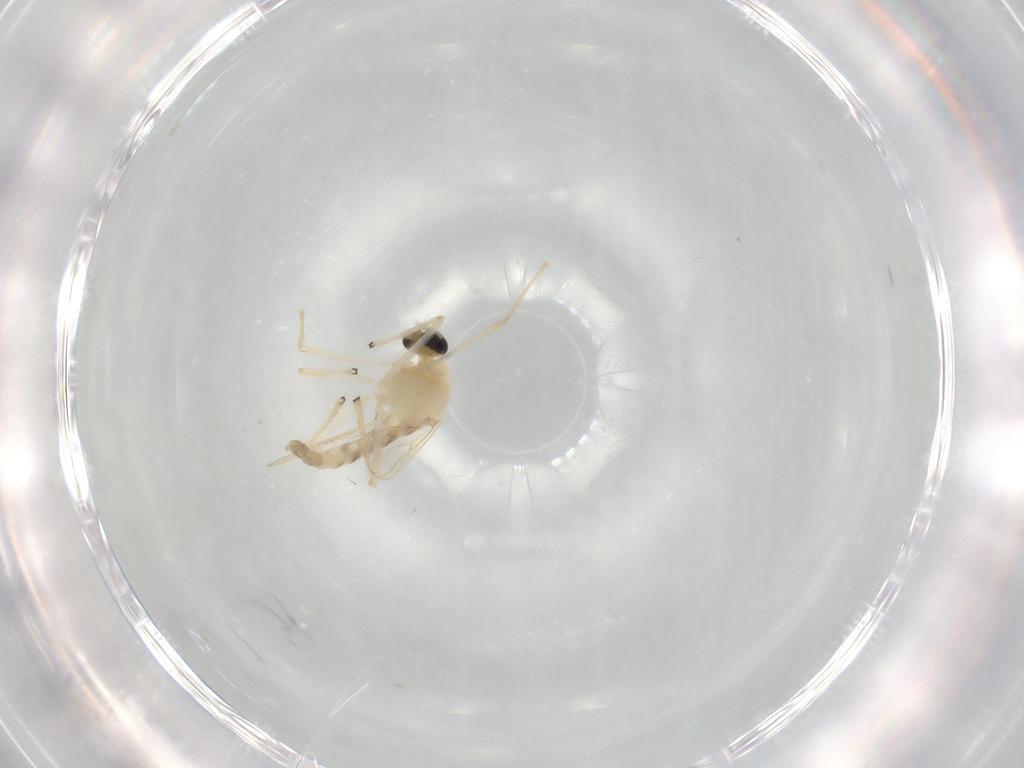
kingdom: Animalia
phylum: Arthropoda
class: Insecta
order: Diptera
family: Chironomidae
